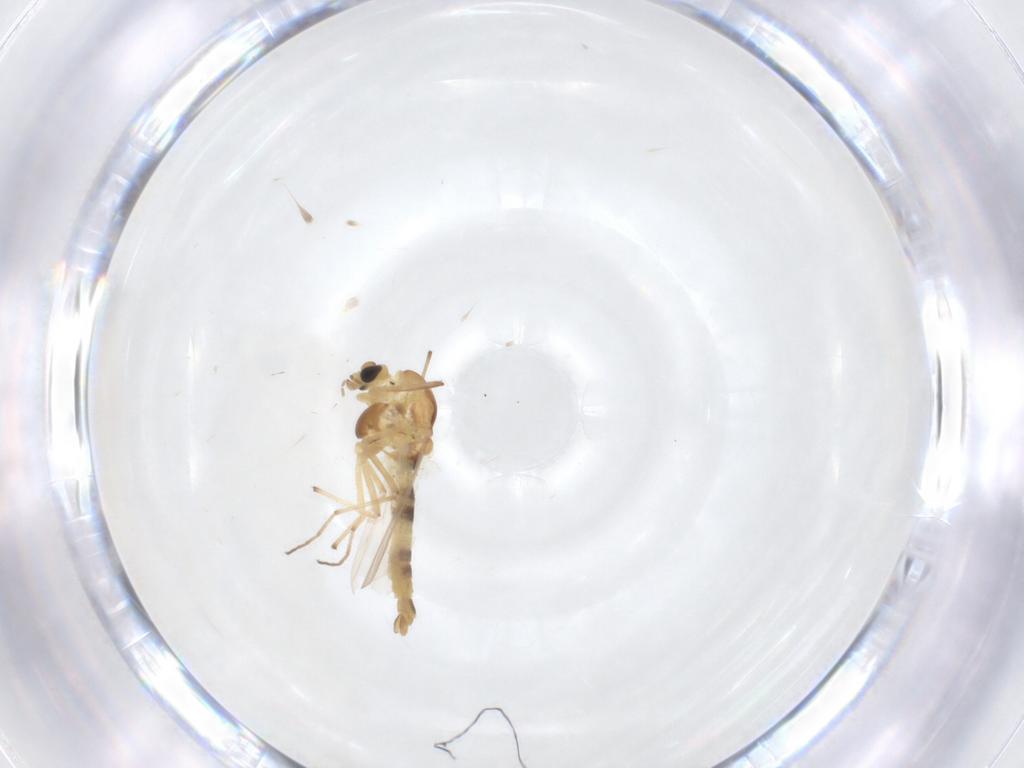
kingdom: Animalia
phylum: Arthropoda
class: Insecta
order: Diptera
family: Chironomidae
